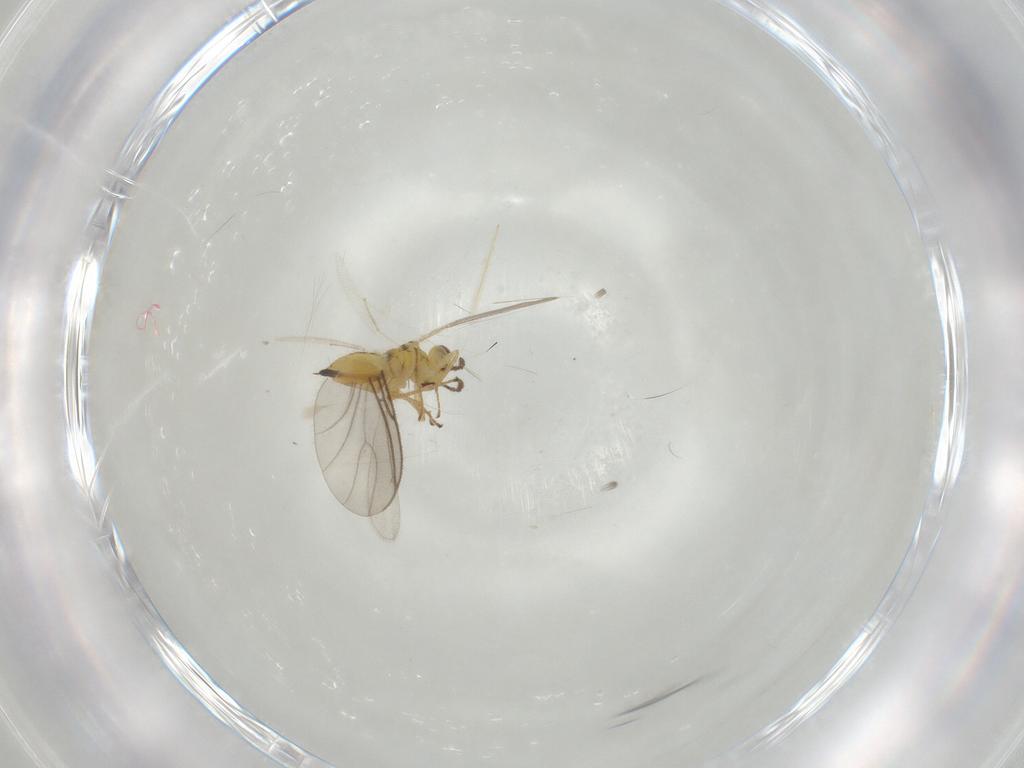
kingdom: Animalia
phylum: Arthropoda
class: Insecta
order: Hymenoptera
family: Eulophidae
